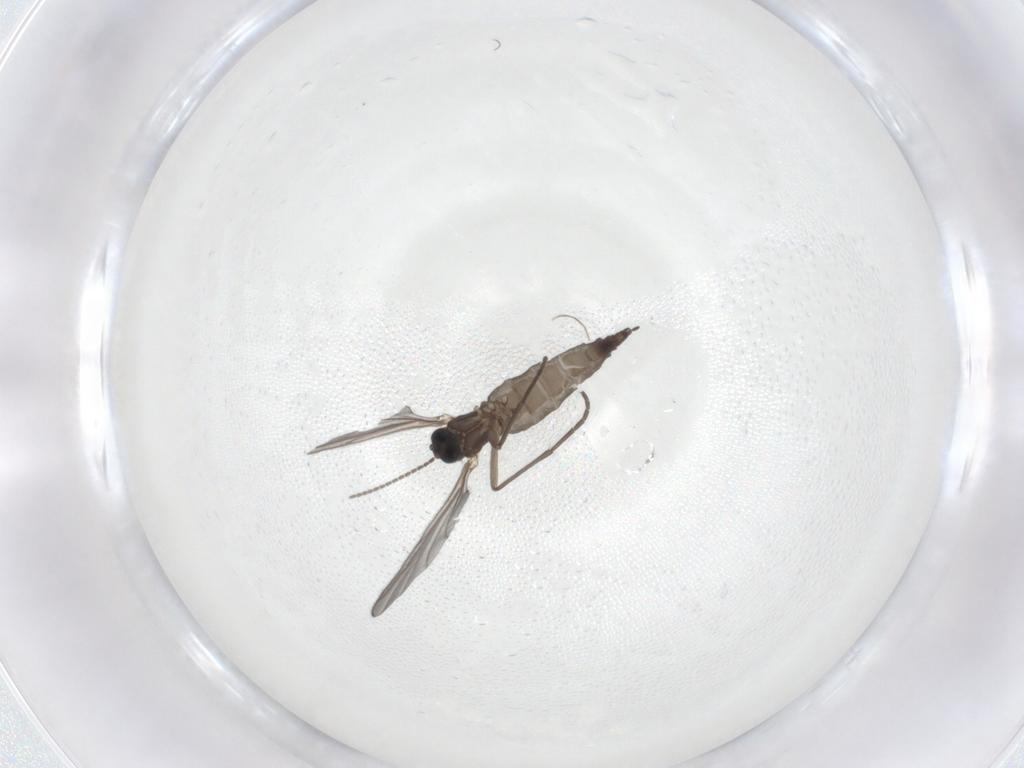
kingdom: Animalia
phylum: Arthropoda
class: Insecta
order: Diptera
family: Sciaridae
